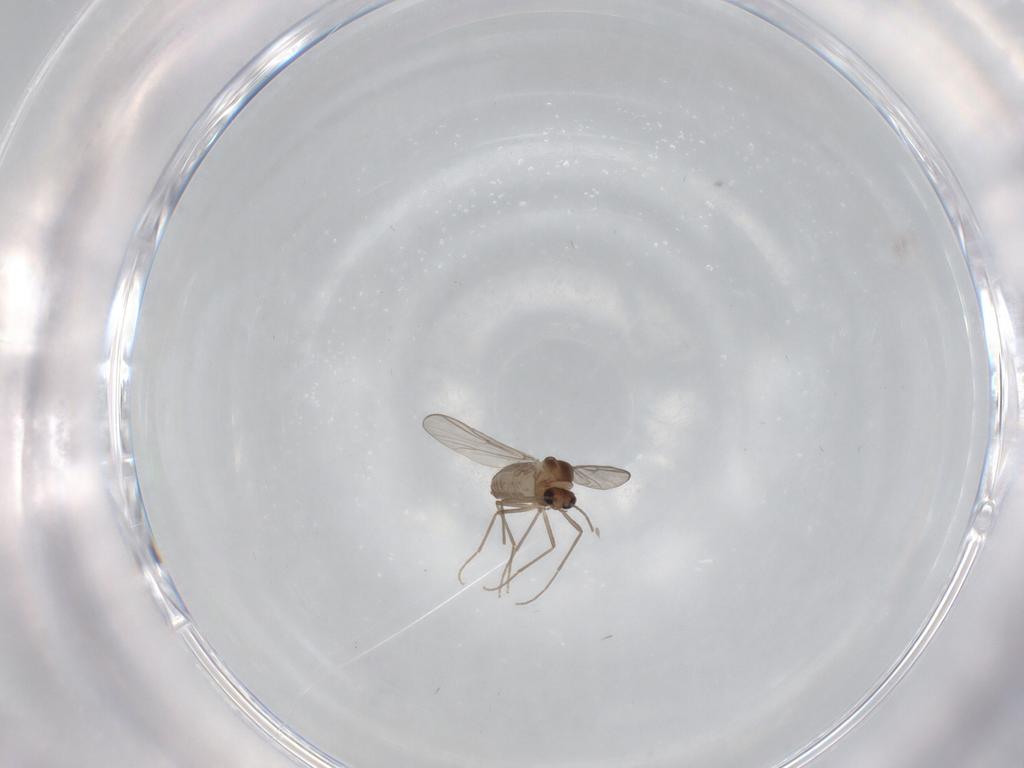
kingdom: Animalia
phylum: Arthropoda
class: Insecta
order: Diptera
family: Chironomidae
